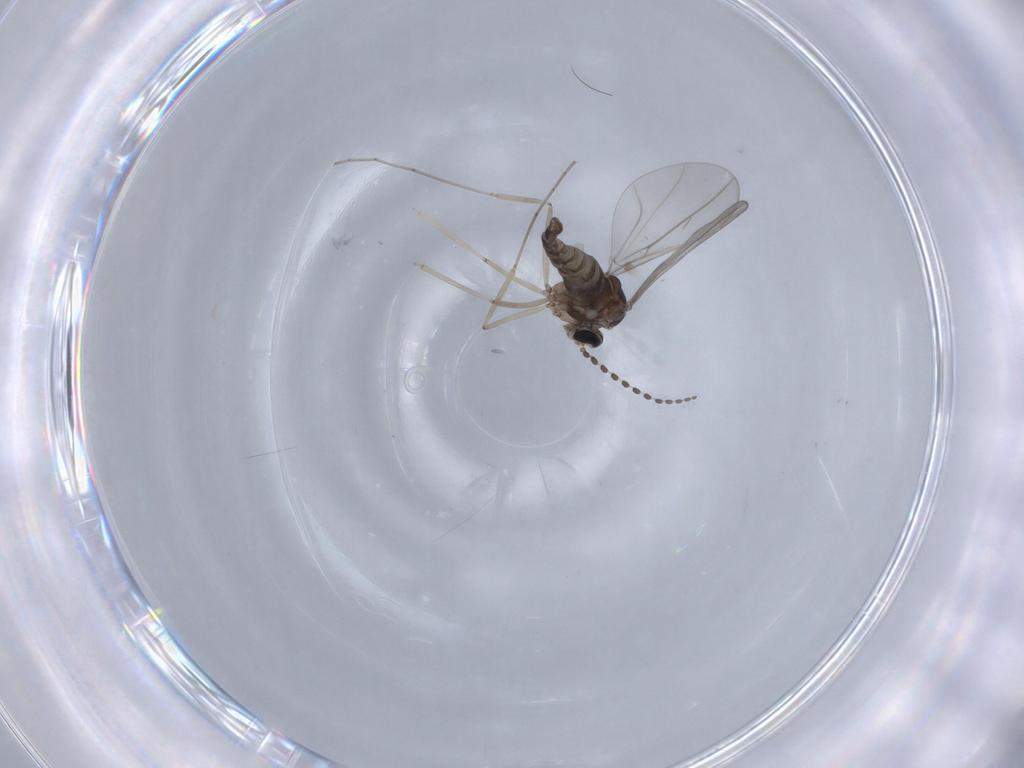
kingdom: Animalia
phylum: Arthropoda
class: Insecta
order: Diptera
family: Cecidomyiidae
